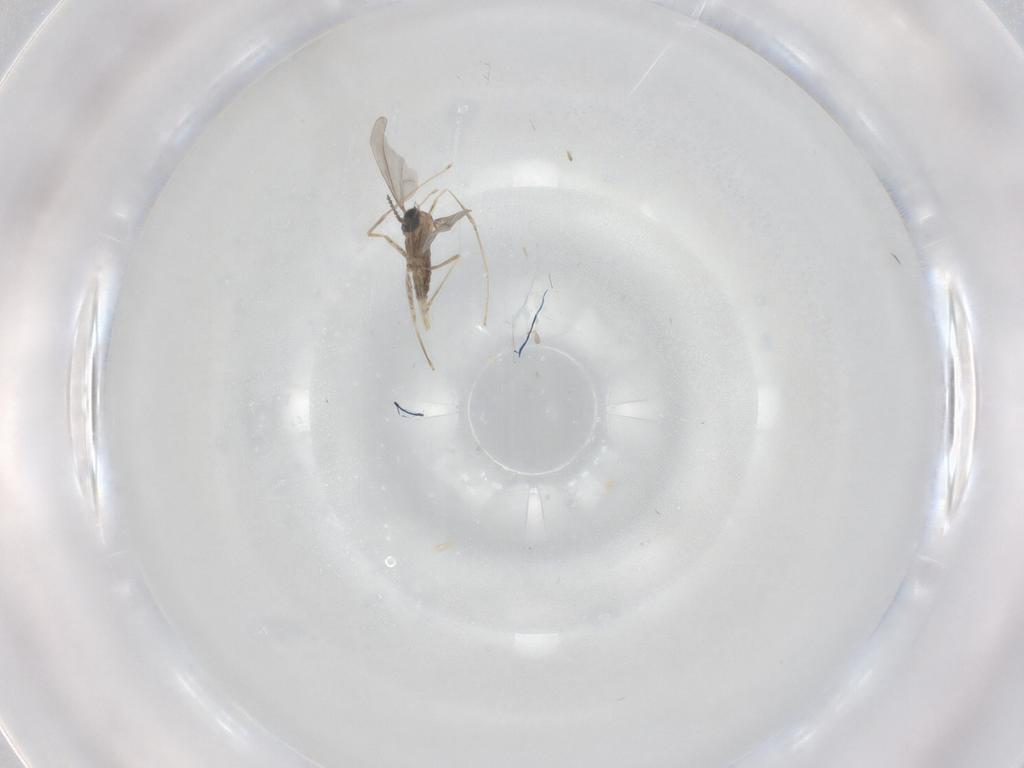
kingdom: Animalia
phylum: Arthropoda
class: Insecta
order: Diptera
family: Cecidomyiidae
